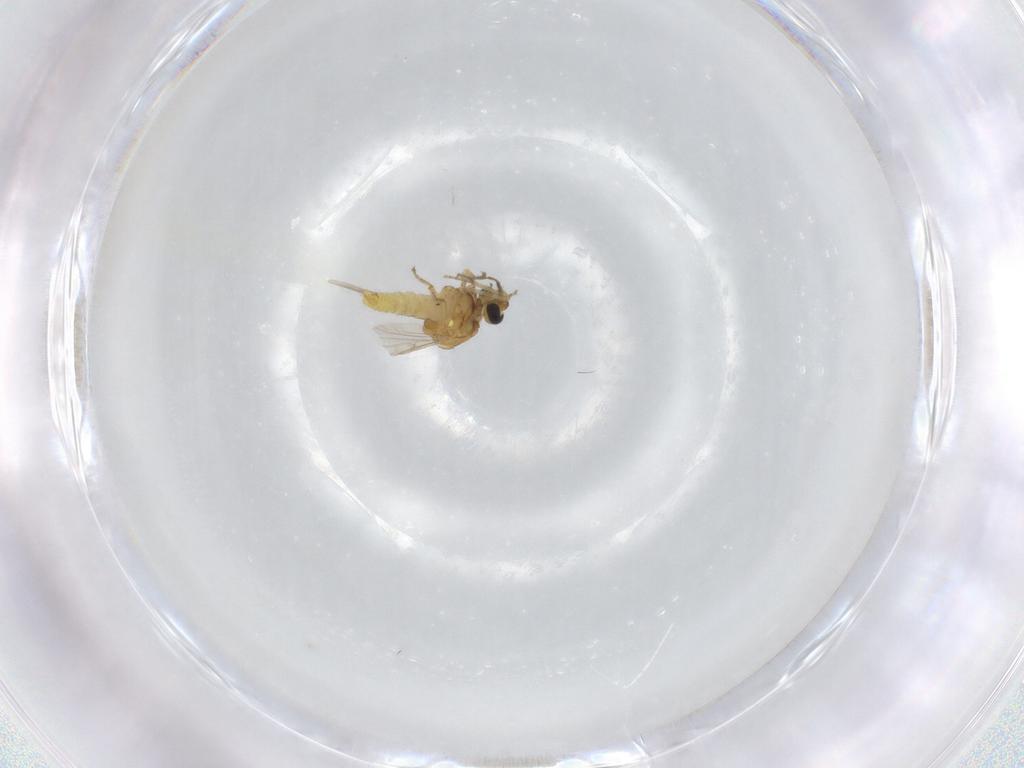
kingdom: Animalia
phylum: Arthropoda
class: Insecta
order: Diptera
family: Ceratopogonidae
